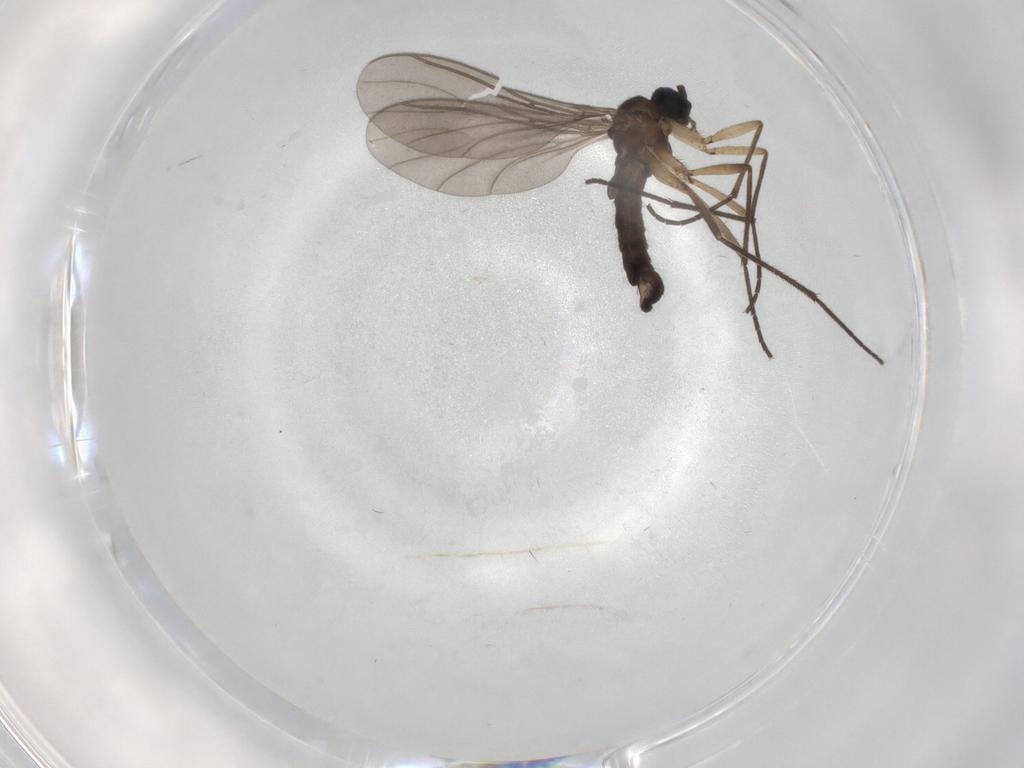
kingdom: Animalia
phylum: Arthropoda
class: Insecta
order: Diptera
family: Sciaridae
